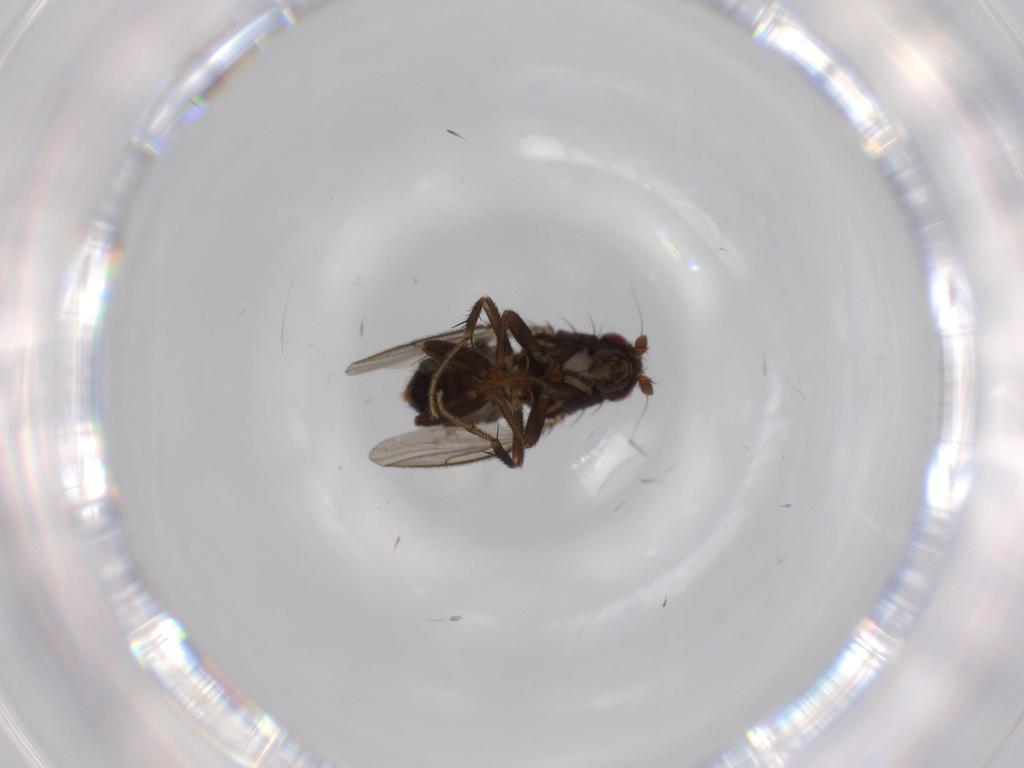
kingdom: Animalia
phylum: Arthropoda
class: Insecta
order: Diptera
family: Sphaeroceridae
